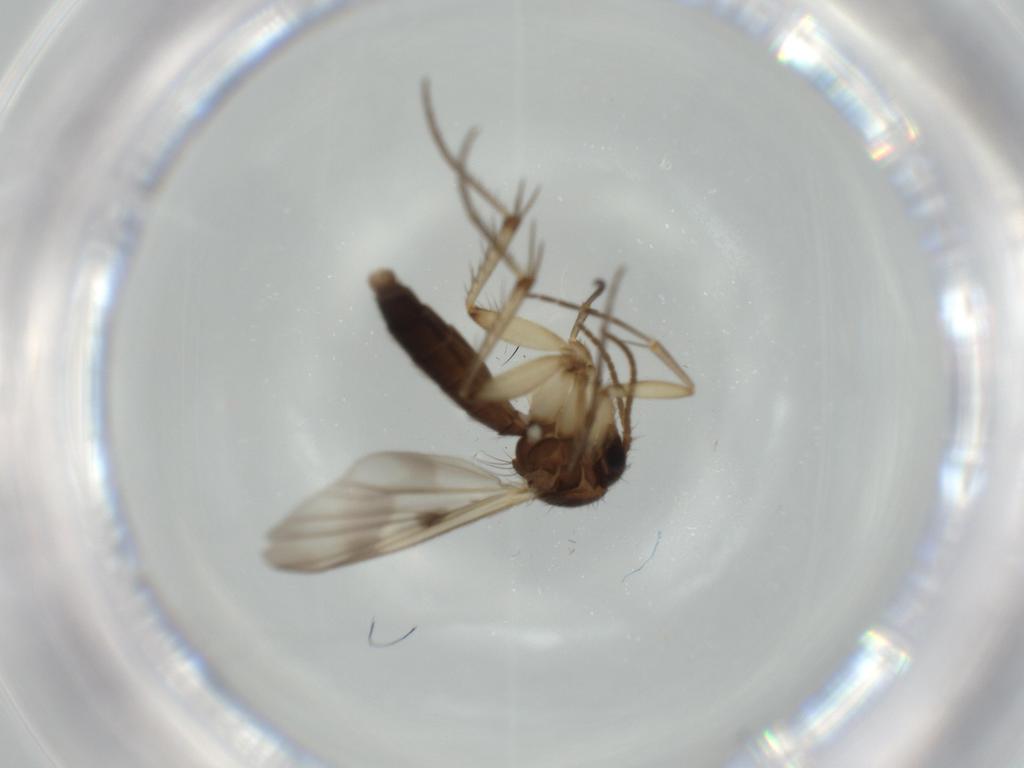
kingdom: Animalia
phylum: Arthropoda
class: Insecta
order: Diptera
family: Mycetophilidae
